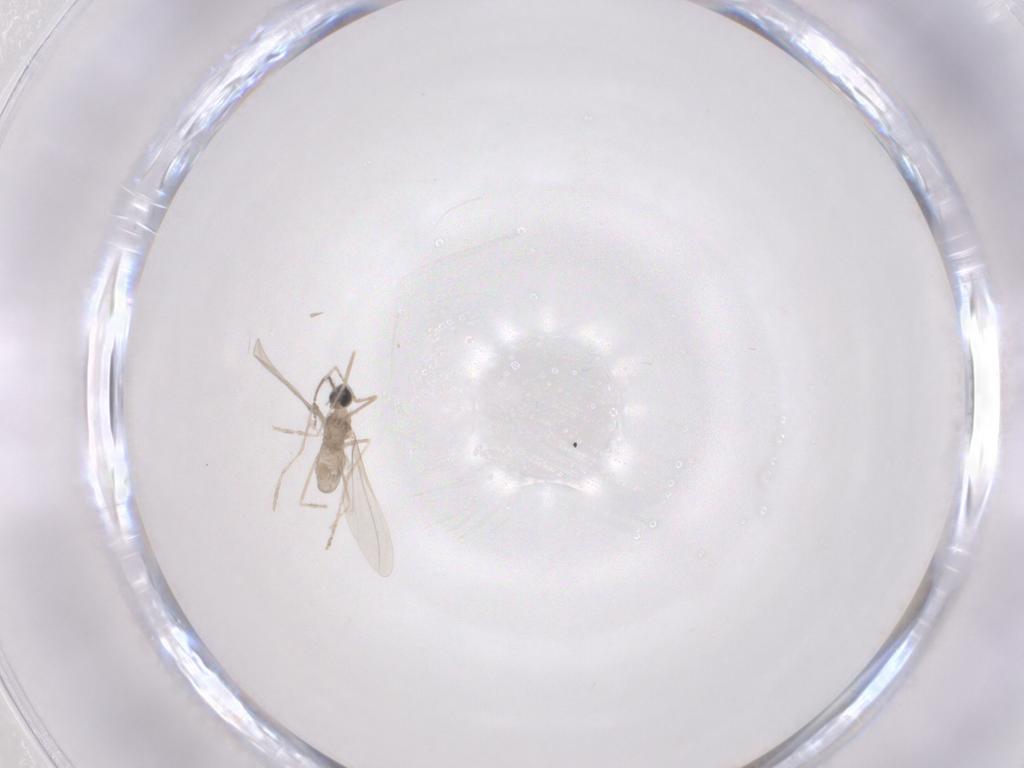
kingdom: Animalia
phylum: Arthropoda
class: Insecta
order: Diptera
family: Cecidomyiidae
